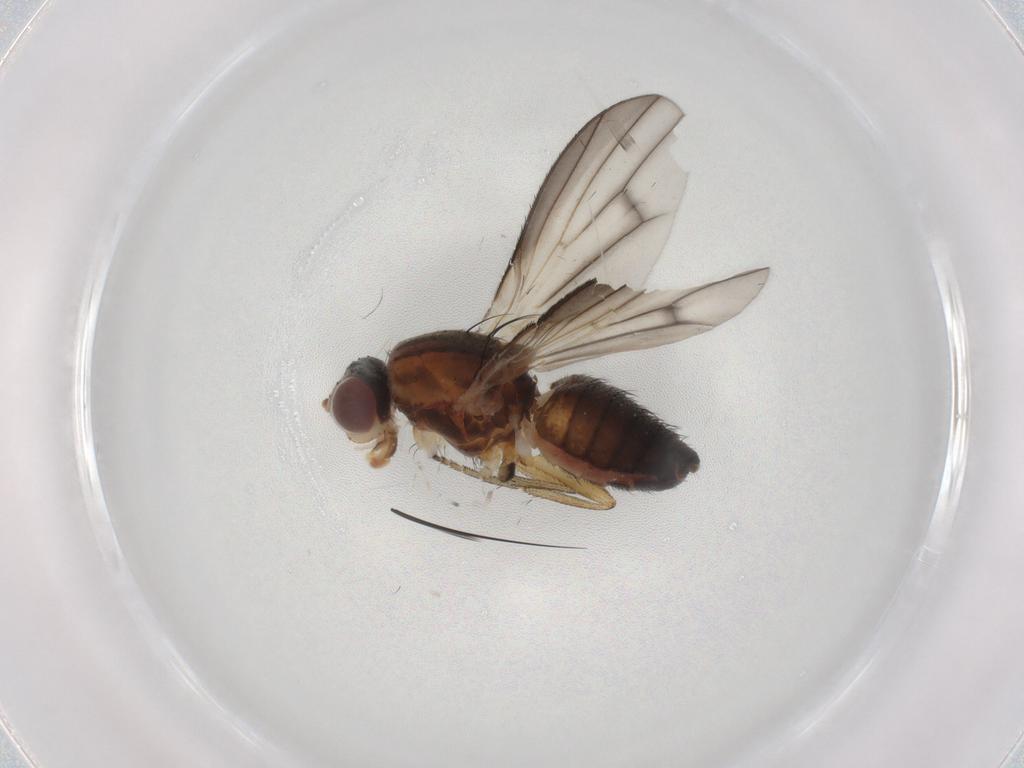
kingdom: Animalia
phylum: Arthropoda
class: Insecta
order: Diptera
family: Heleomyzidae
